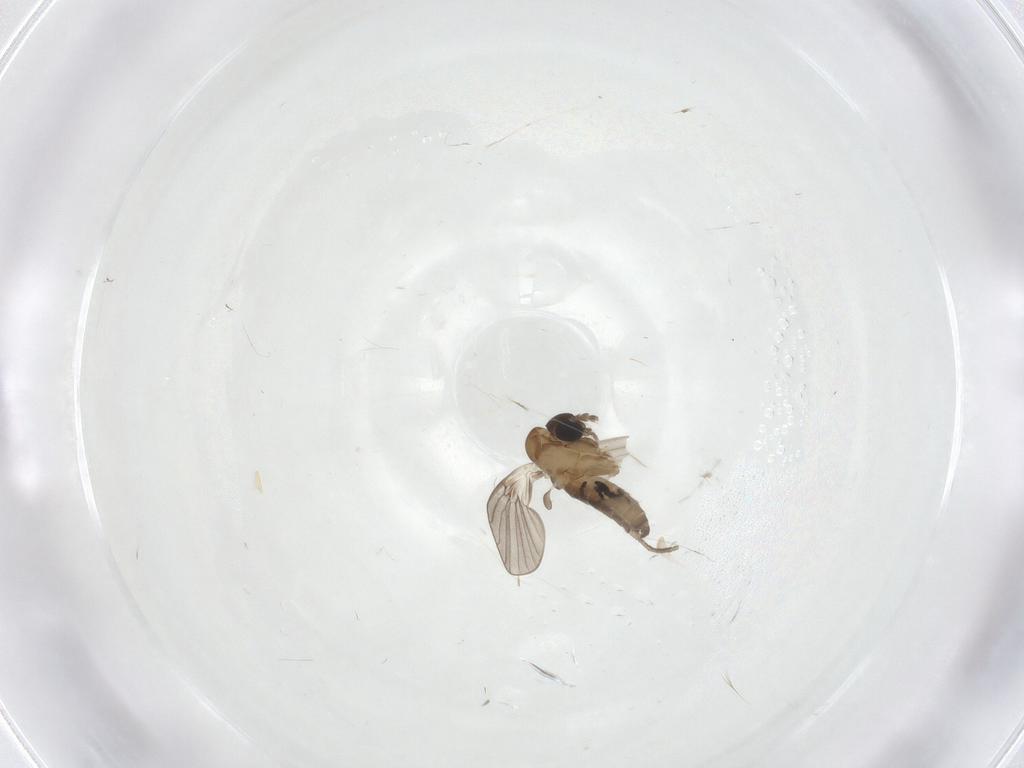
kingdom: Animalia
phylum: Arthropoda
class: Insecta
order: Diptera
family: Cecidomyiidae
